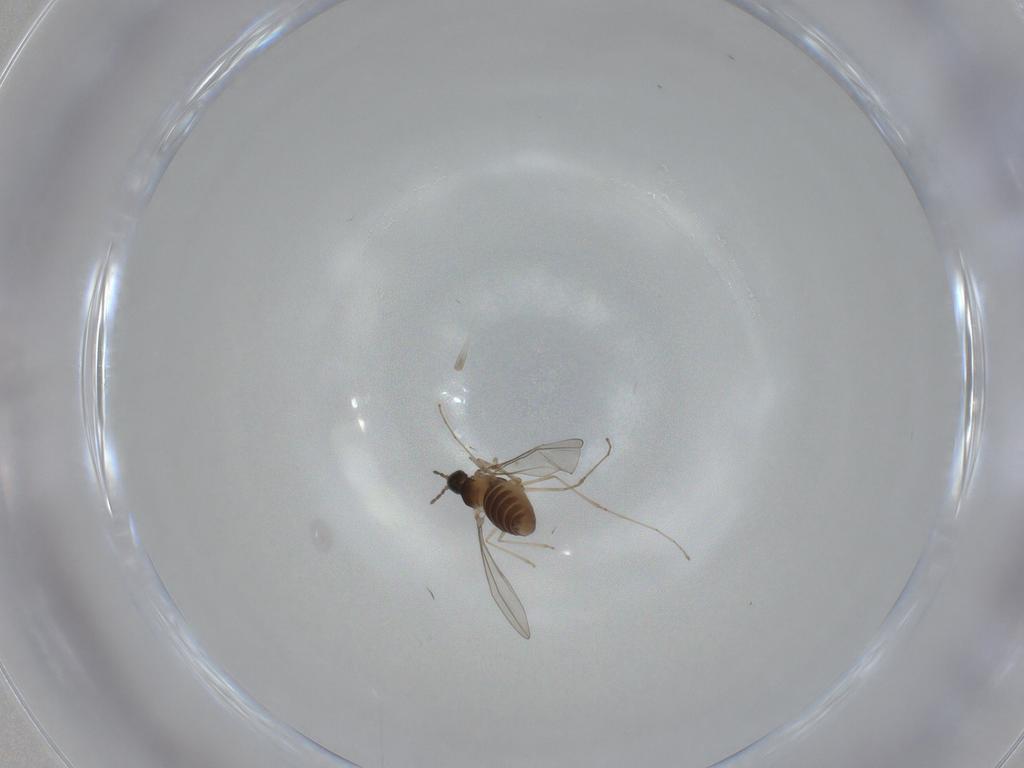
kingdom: Animalia
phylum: Arthropoda
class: Insecta
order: Diptera
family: Cecidomyiidae
